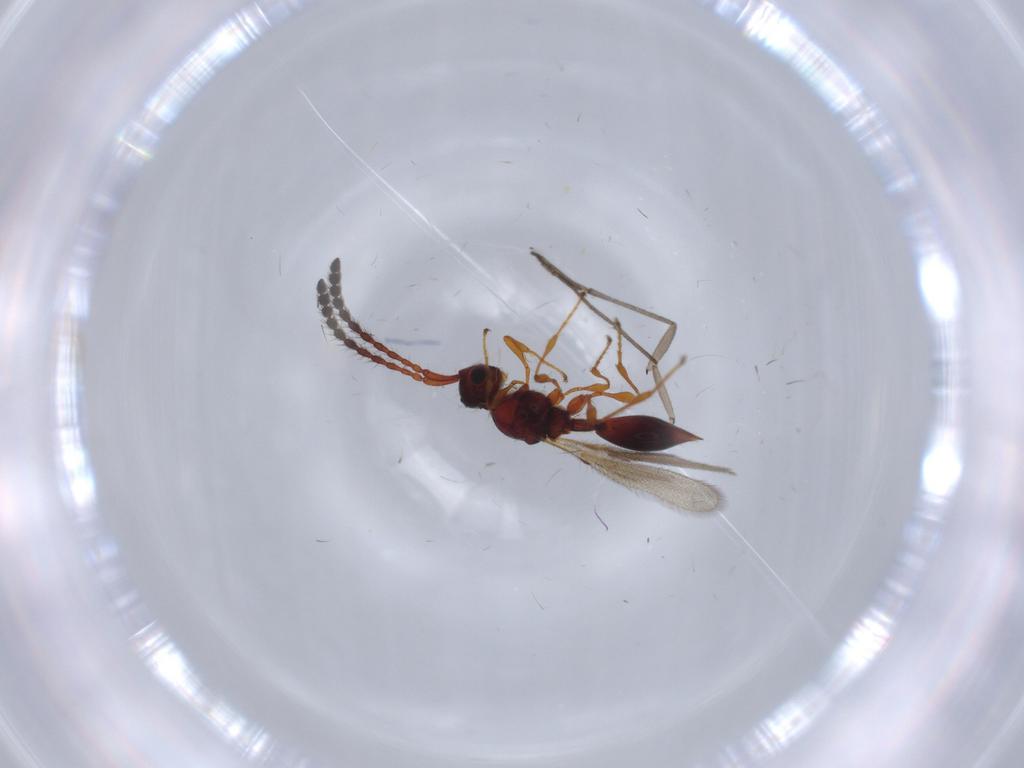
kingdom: Animalia
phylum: Arthropoda
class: Insecta
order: Hymenoptera
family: Diapriidae
